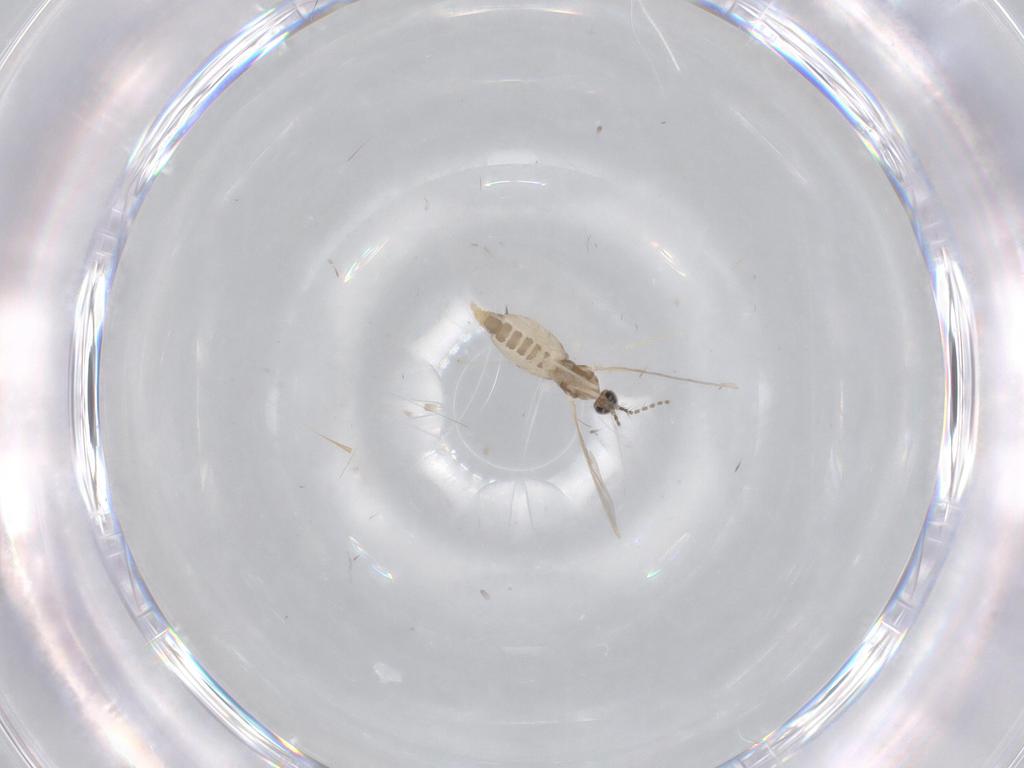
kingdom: Animalia
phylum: Arthropoda
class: Insecta
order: Diptera
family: Cecidomyiidae
